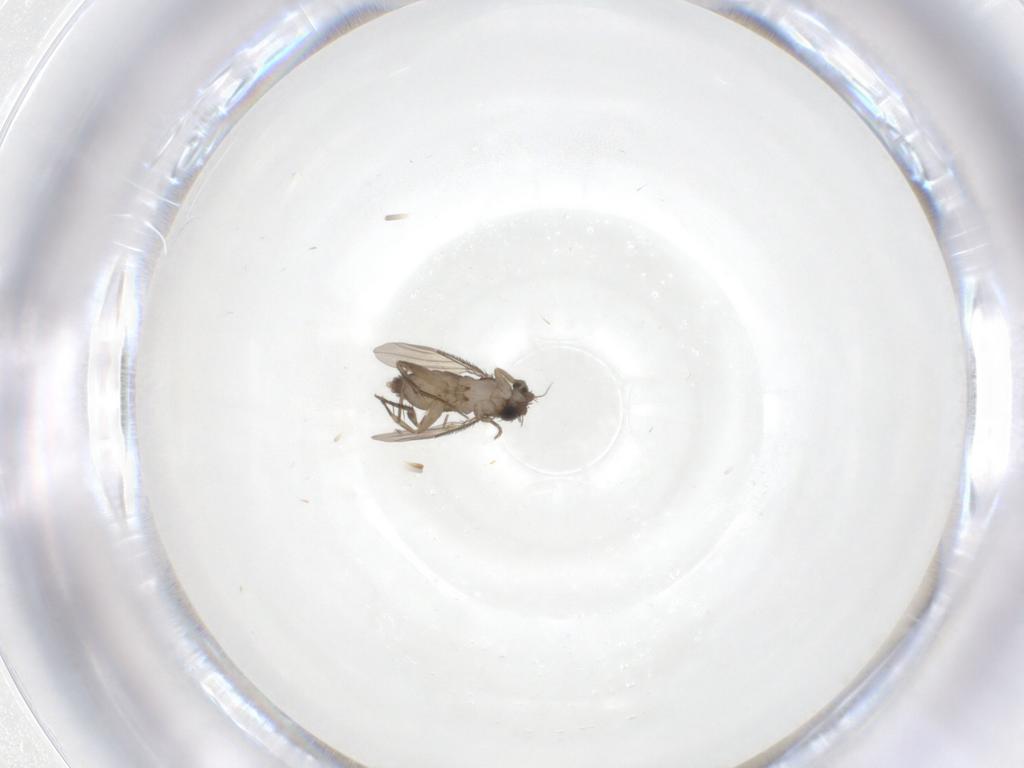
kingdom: Animalia
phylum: Arthropoda
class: Insecta
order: Diptera
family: Phoridae
